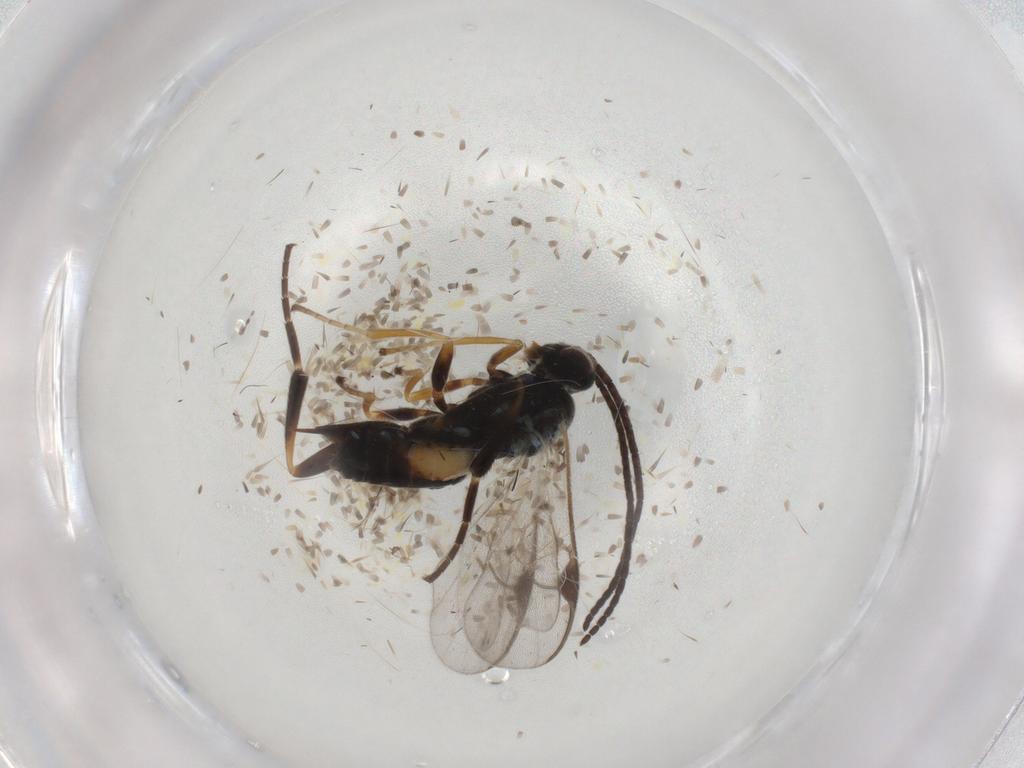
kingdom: Animalia
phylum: Arthropoda
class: Insecta
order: Hymenoptera
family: Braconidae
